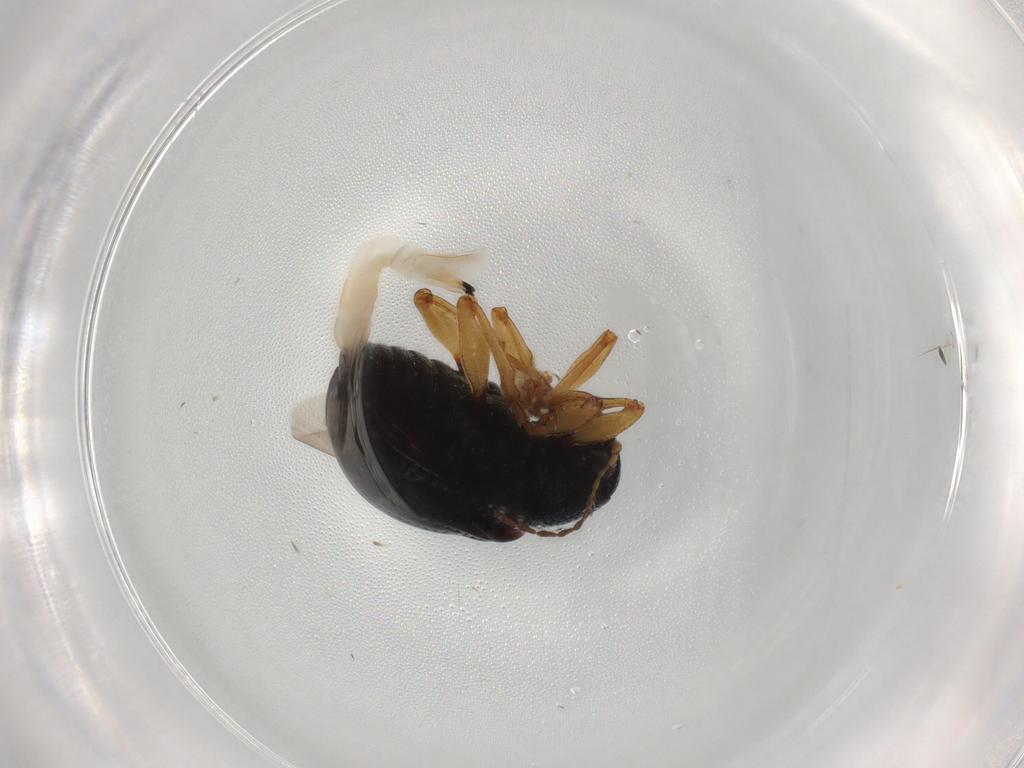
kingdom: Animalia
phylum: Arthropoda
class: Insecta
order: Coleoptera
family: Chrysomelidae
